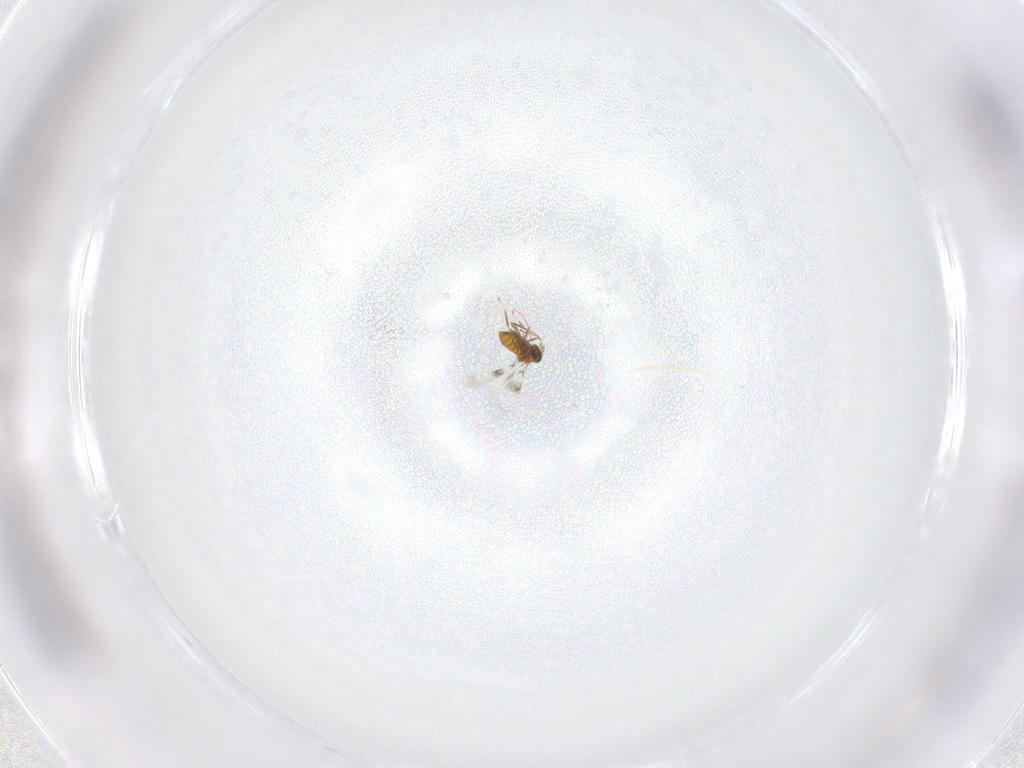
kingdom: Animalia
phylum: Arthropoda
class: Insecta
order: Hymenoptera
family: Trichogrammatidae
